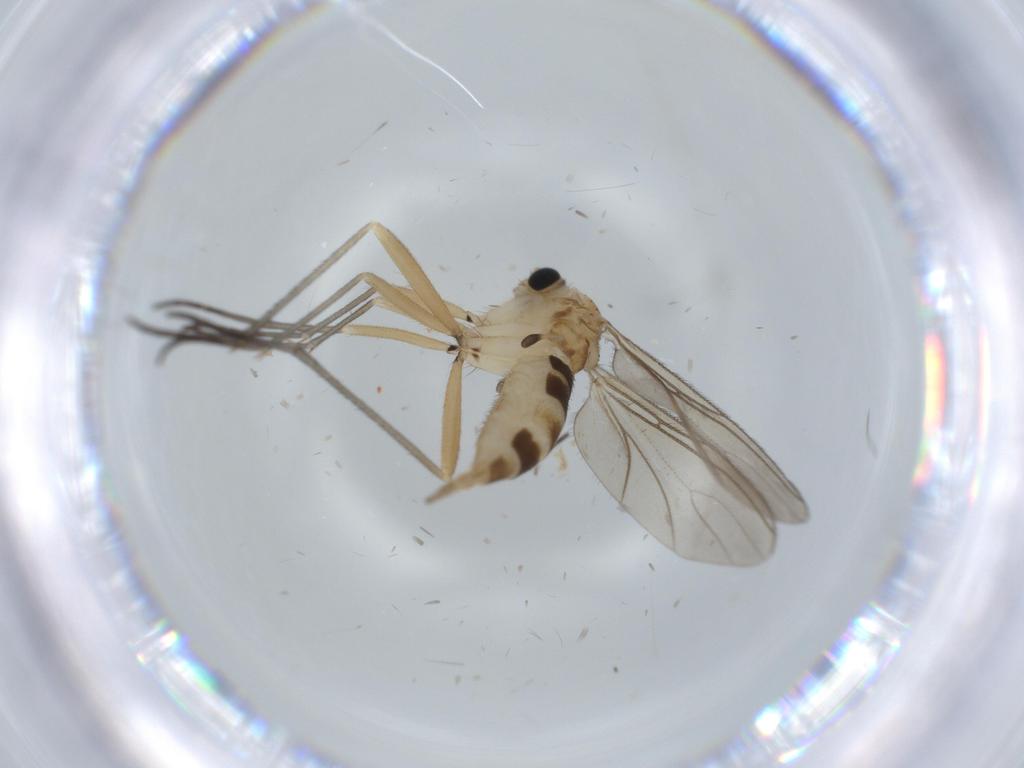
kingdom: Animalia
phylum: Arthropoda
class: Insecta
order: Diptera
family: Sciaridae
